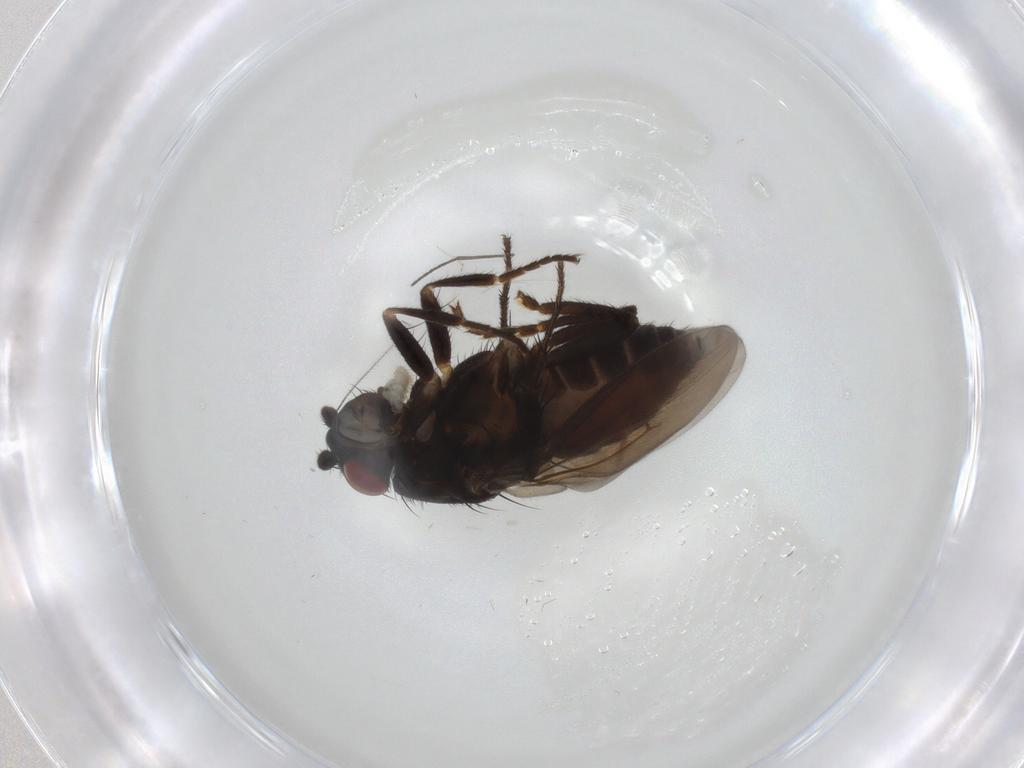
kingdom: Animalia
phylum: Arthropoda
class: Insecta
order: Diptera
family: Sphaeroceridae
